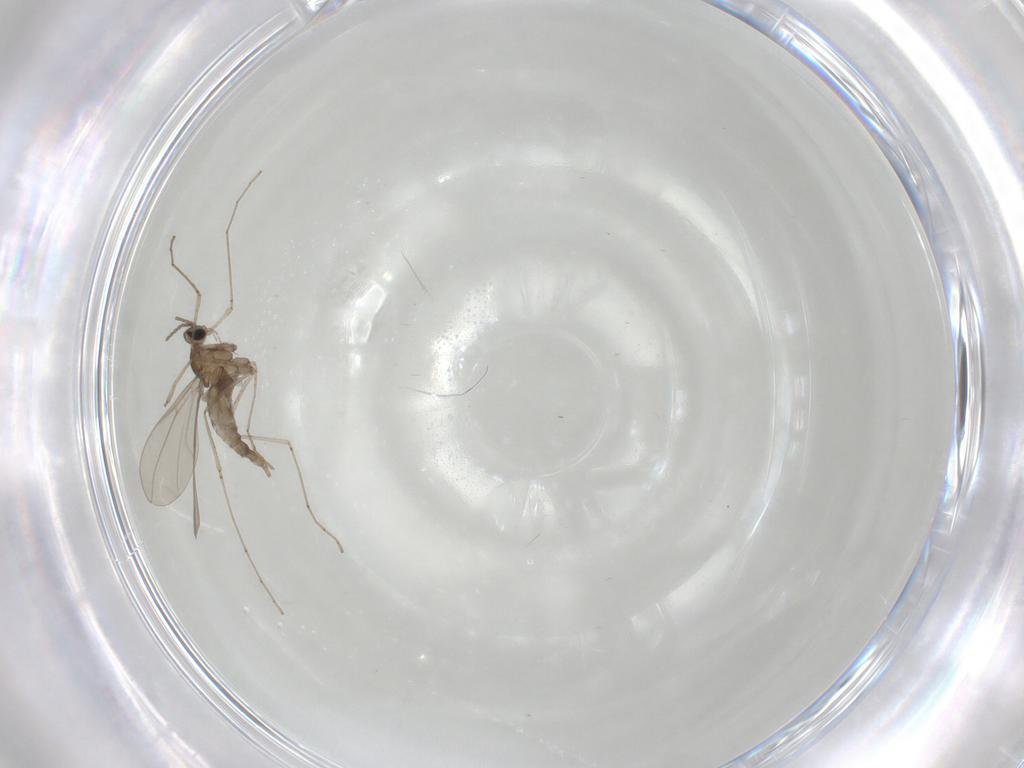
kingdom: Animalia
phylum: Arthropoda
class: Insecta
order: Diptera
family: Cecidomyiidae
